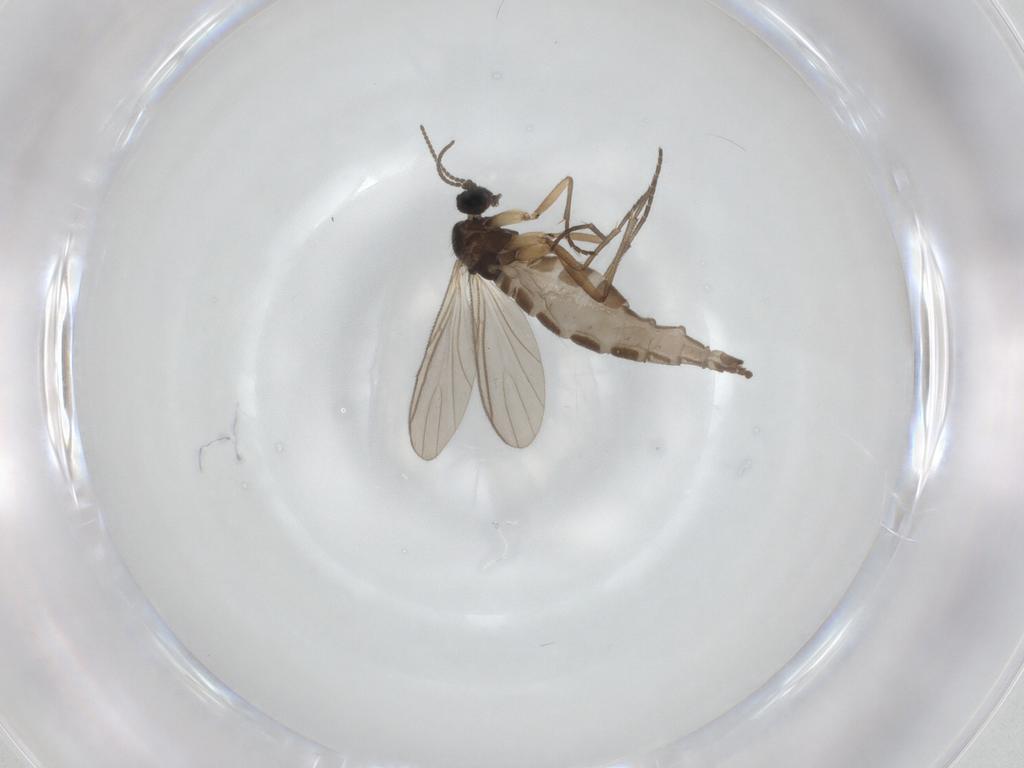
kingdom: Animalia
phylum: Arthropoda
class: Insecta
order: Diptera
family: Sciaridae
